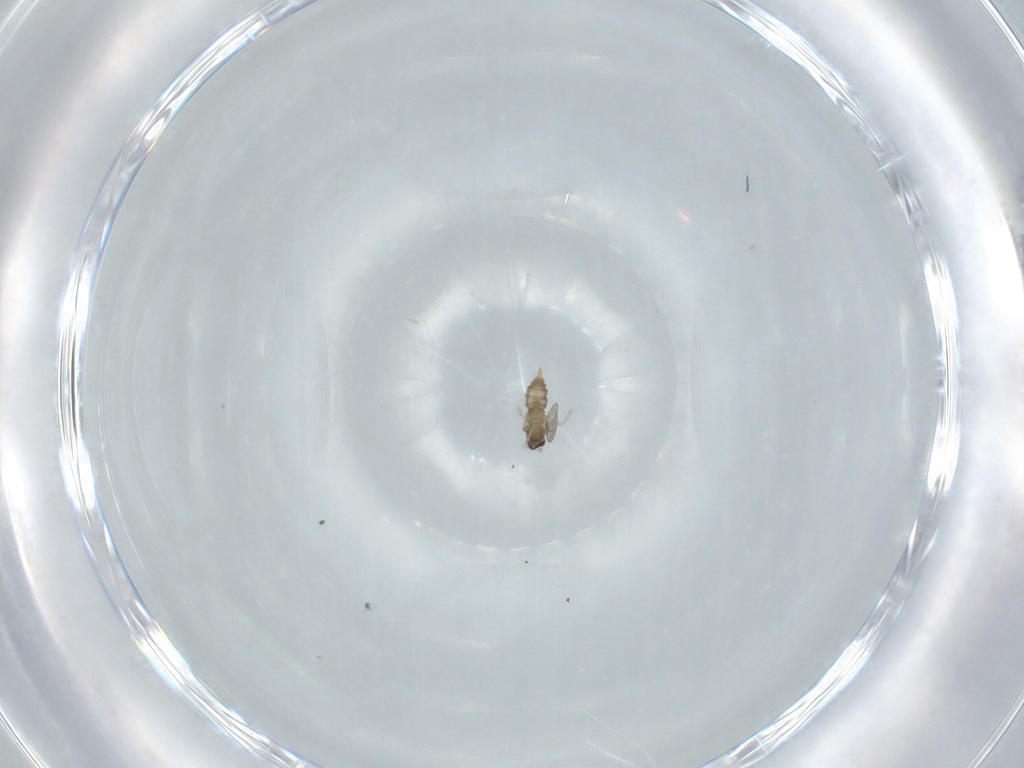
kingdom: Animalia
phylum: Arthropoda
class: Insecta
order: Diptera
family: Cecidomyiidae
